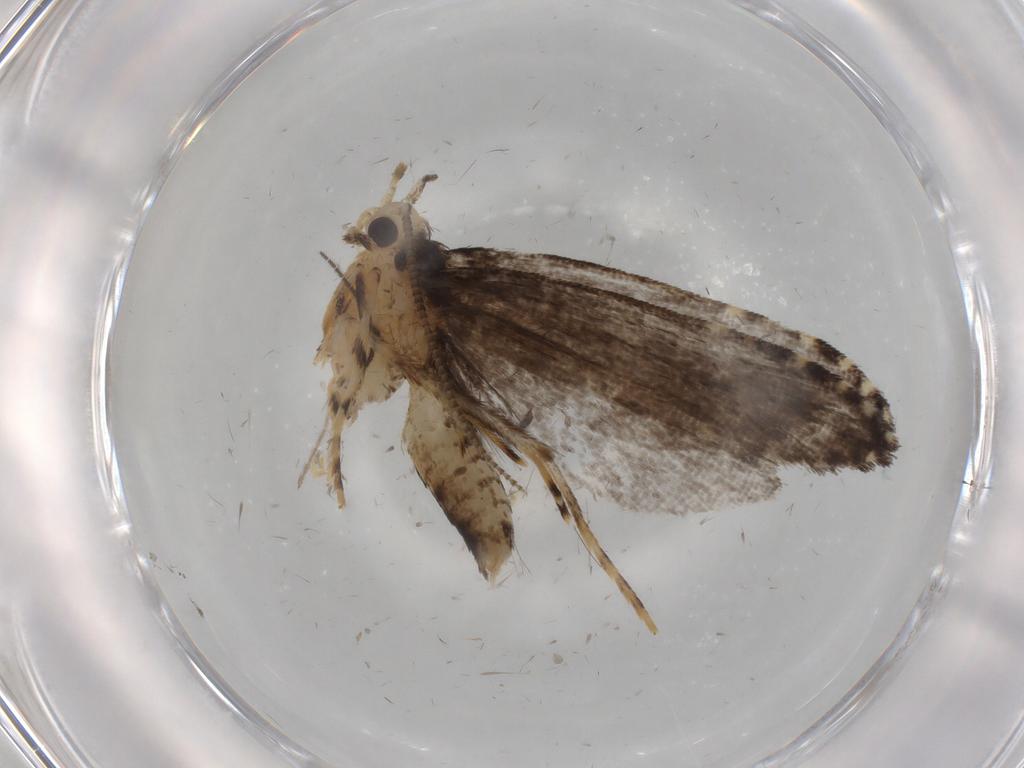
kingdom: Animalia
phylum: Arthropoda
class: Insecta
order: Lepidoptera
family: Tineidae
